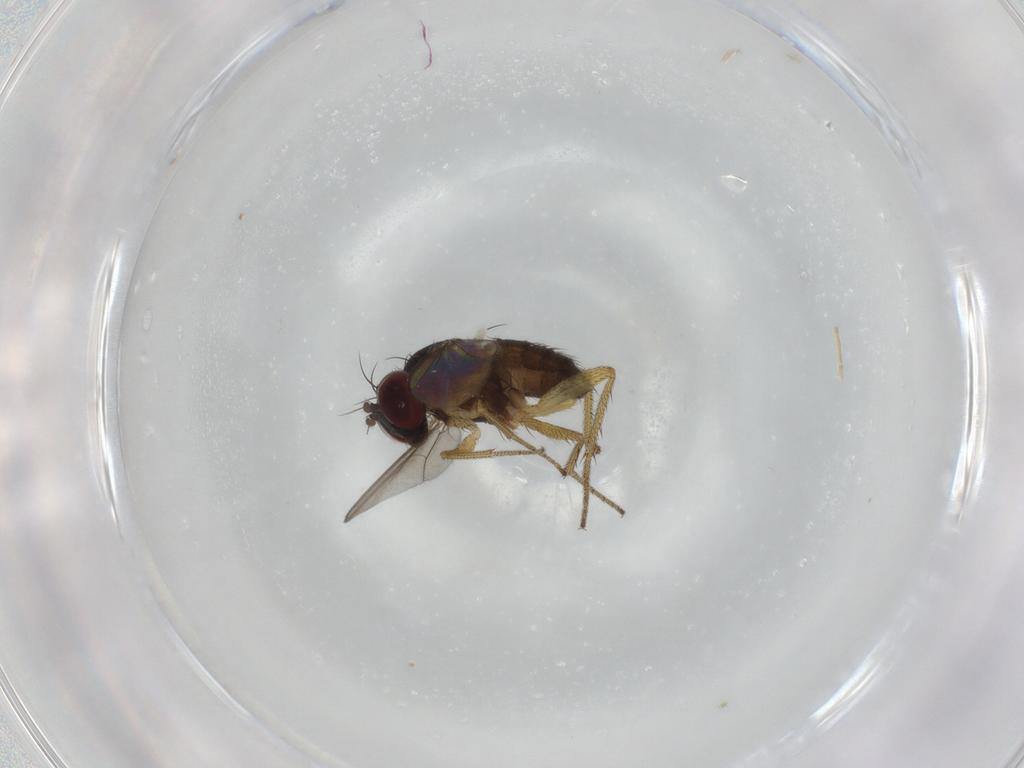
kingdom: Animalia
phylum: Arthropoda
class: Insecta
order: Diptera
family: Dolichopodidae
